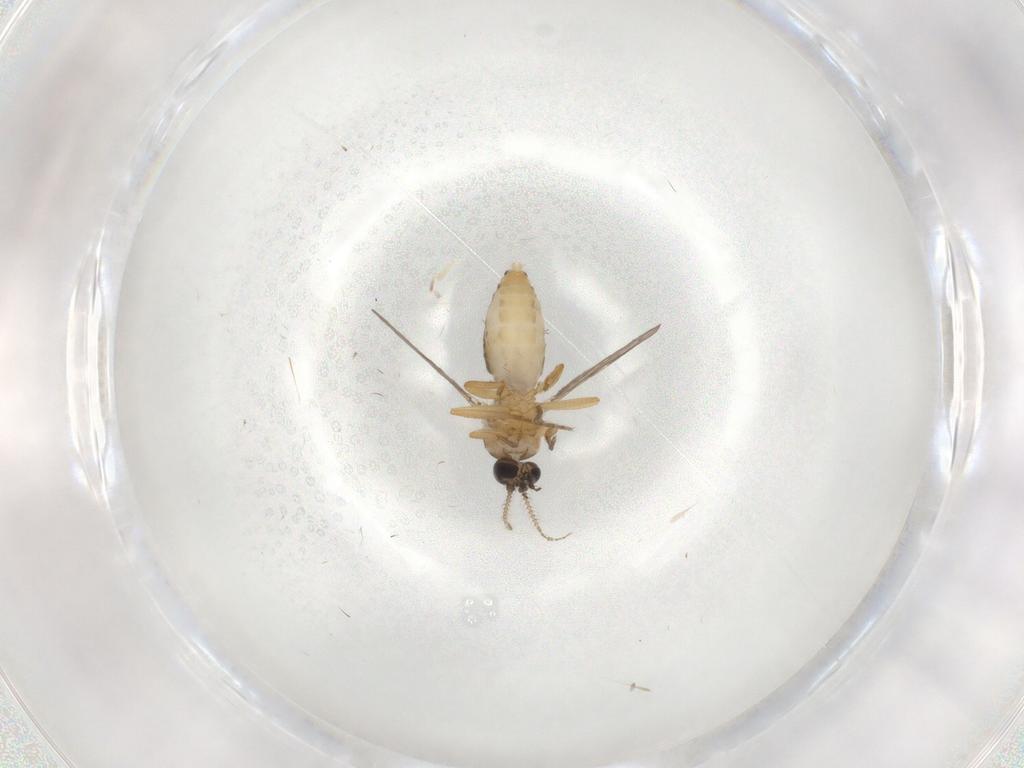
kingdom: Animalia
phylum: Arthropoda
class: Insecta
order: Diptera
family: Ceratopogonidae
